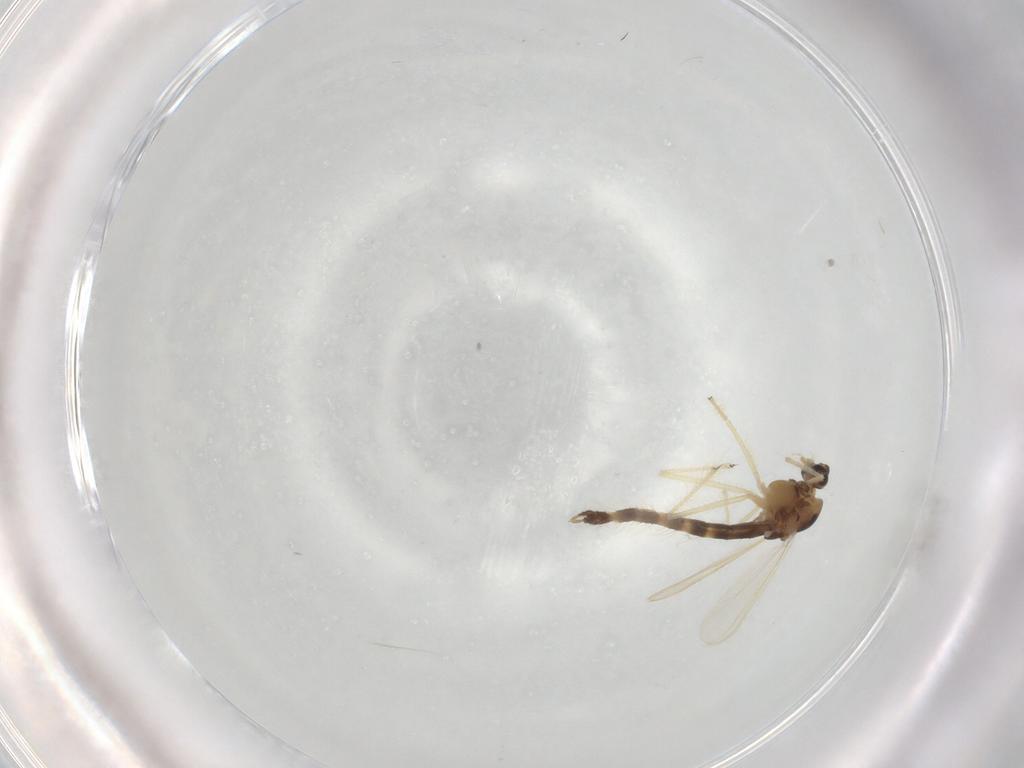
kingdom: Animalia
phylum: Arthropoda
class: Insecta
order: Diptera
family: Chironomidae
